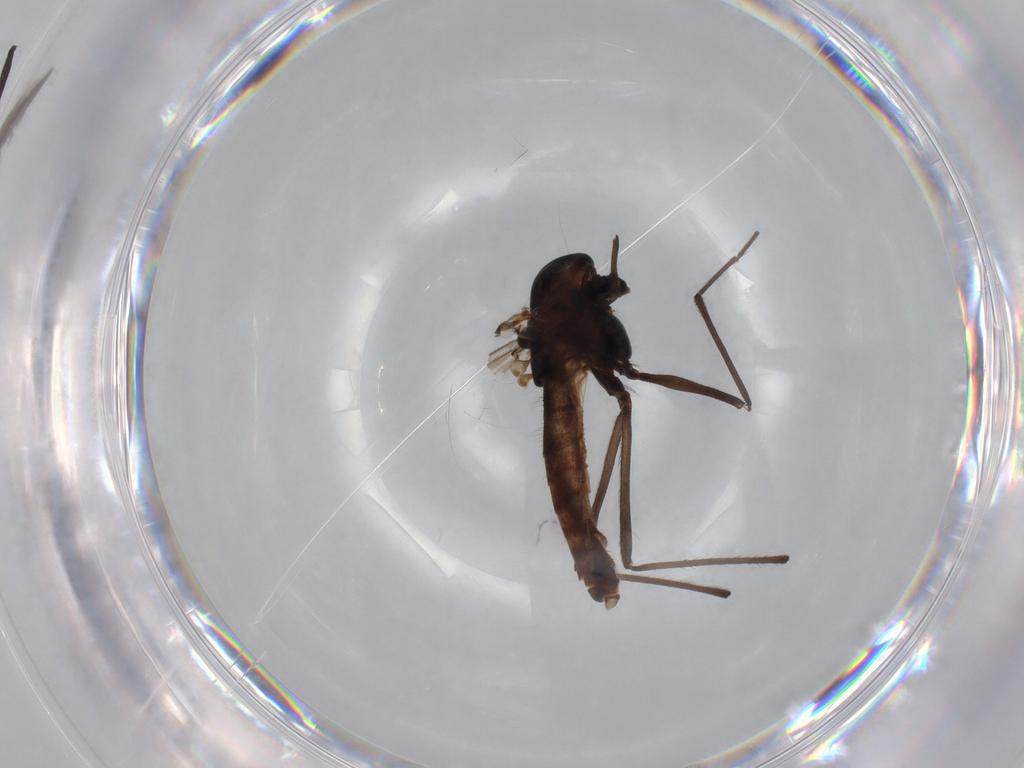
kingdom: Animalia
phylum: Arthropoda
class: Insecta
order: Diptera
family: Chironomidae
